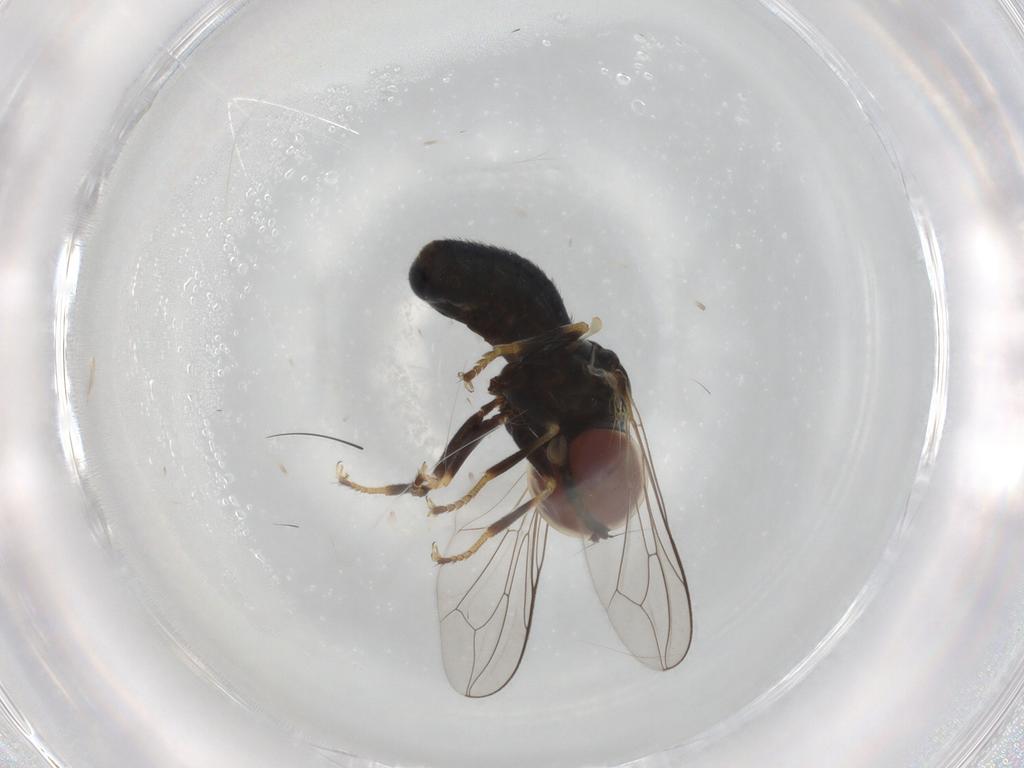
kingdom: Animalia
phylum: Arthropoda
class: Insecta
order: Diptera
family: Pipunculidae
